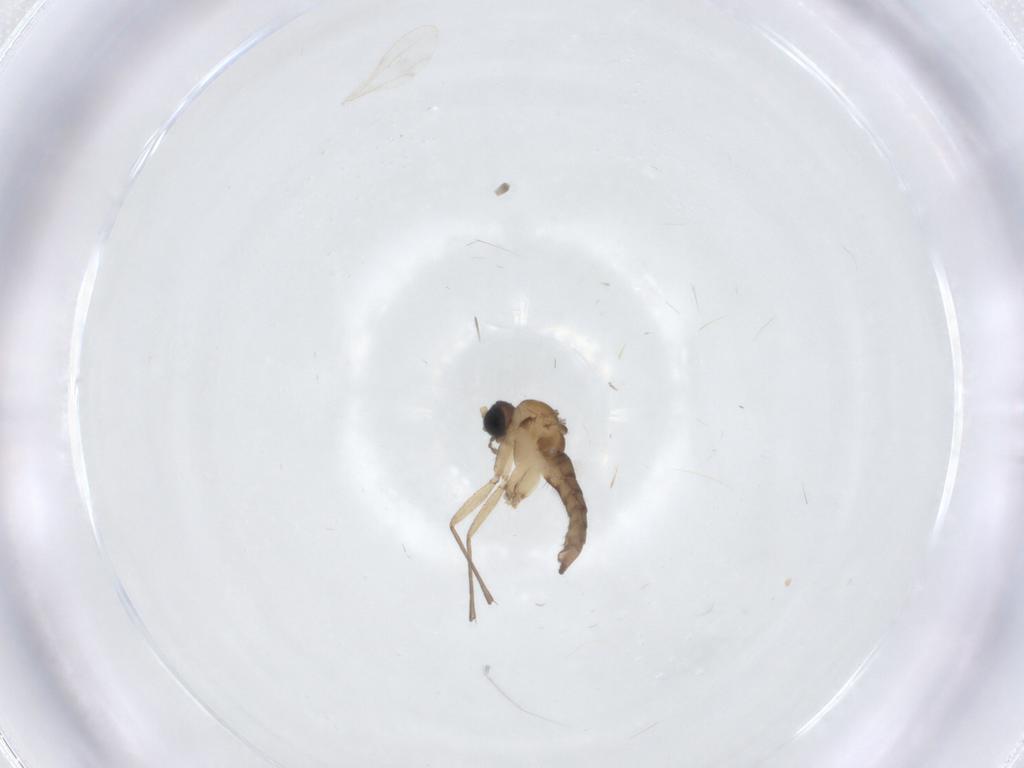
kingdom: Animalia
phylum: Arthropoda
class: Insecta
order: Diptera
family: Sciaridae
